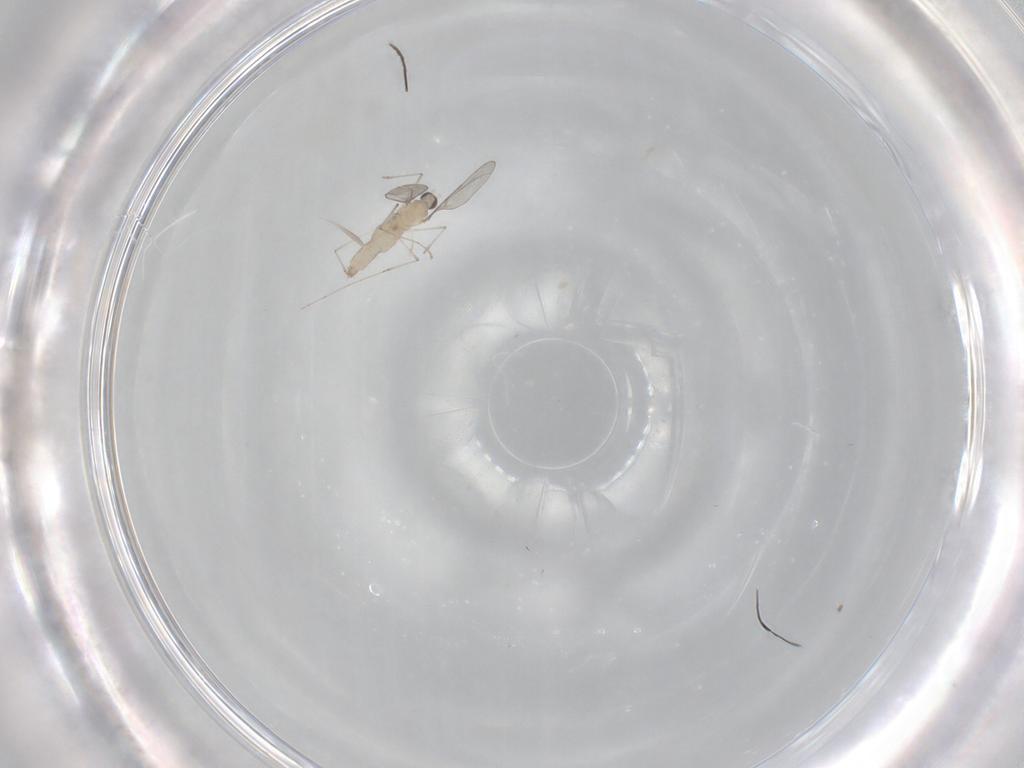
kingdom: Animalia
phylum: Arthropoda
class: Insecta
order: Diptera
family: Cecidomyiidae
